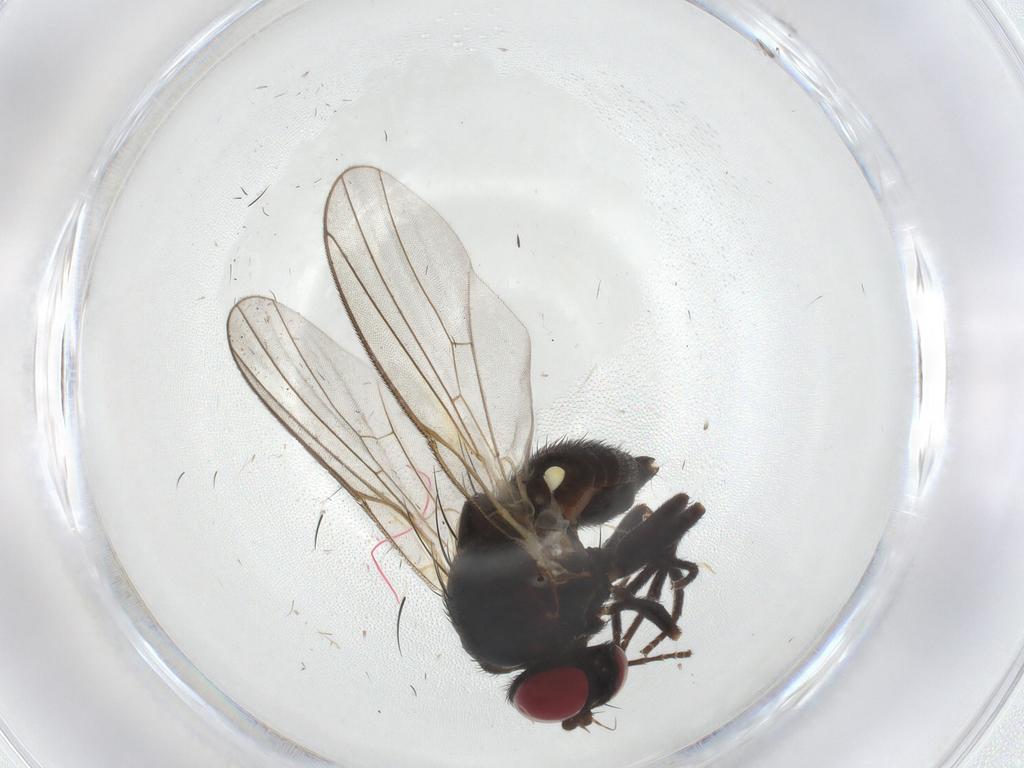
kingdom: Animalia
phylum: Arthropoda
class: Insecta
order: Diptera
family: Agromyzidae
